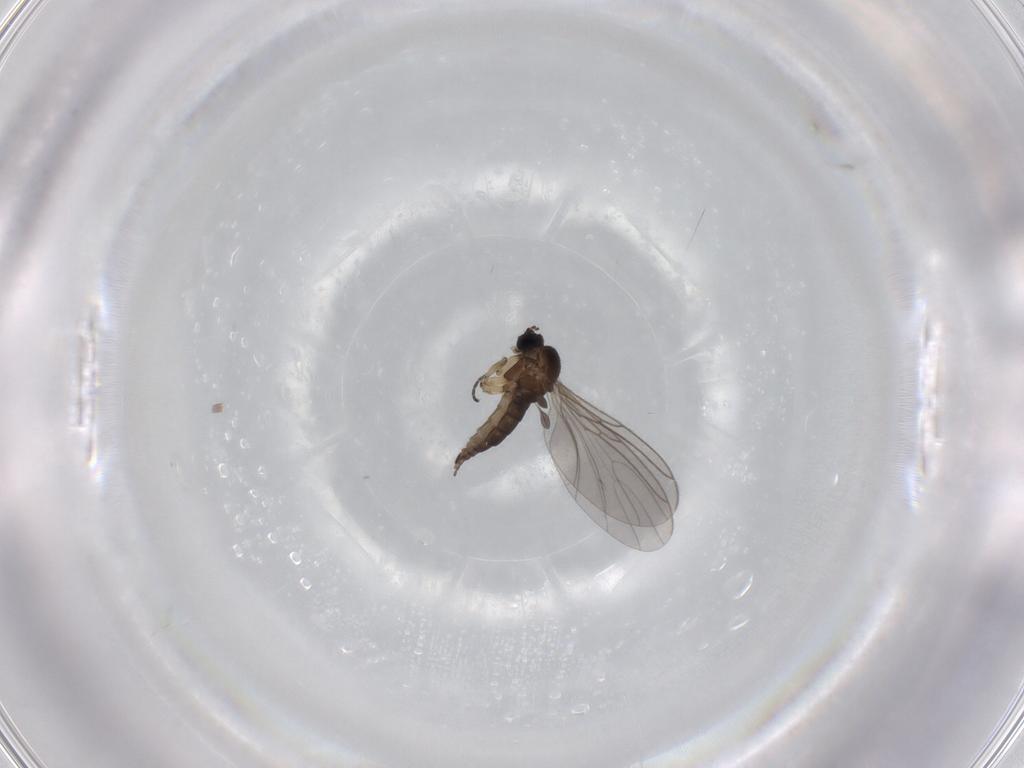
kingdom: Animalia
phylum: Arthropoda
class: Insecta
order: Diptera
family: Sciaridae
